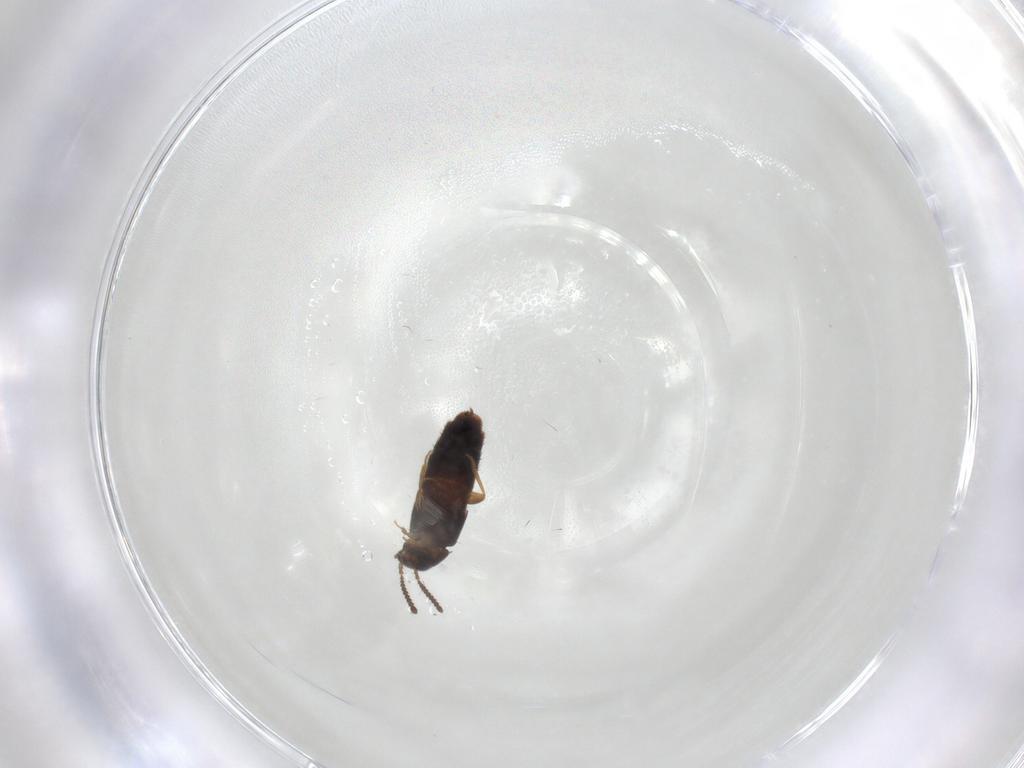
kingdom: Animalia
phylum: Arthropoda
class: Insecta
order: Coleoptera
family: Staphylinidae
